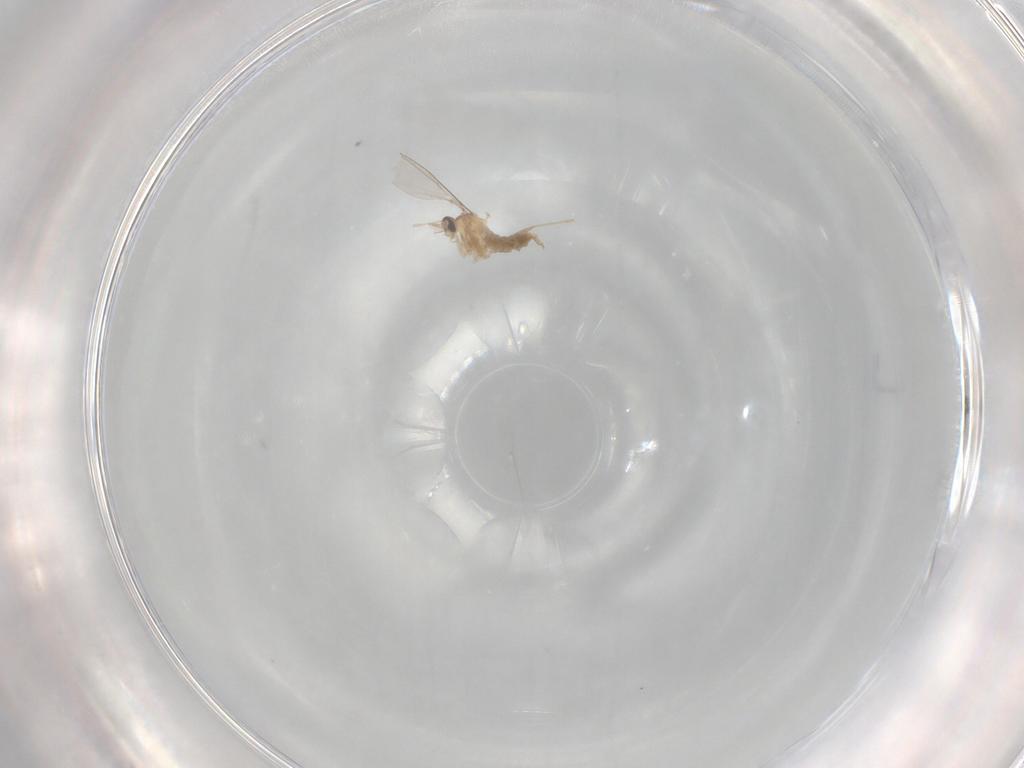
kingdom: Animalia
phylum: Arthropoda
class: Insecta
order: Diptera
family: Cecidomyiidae
